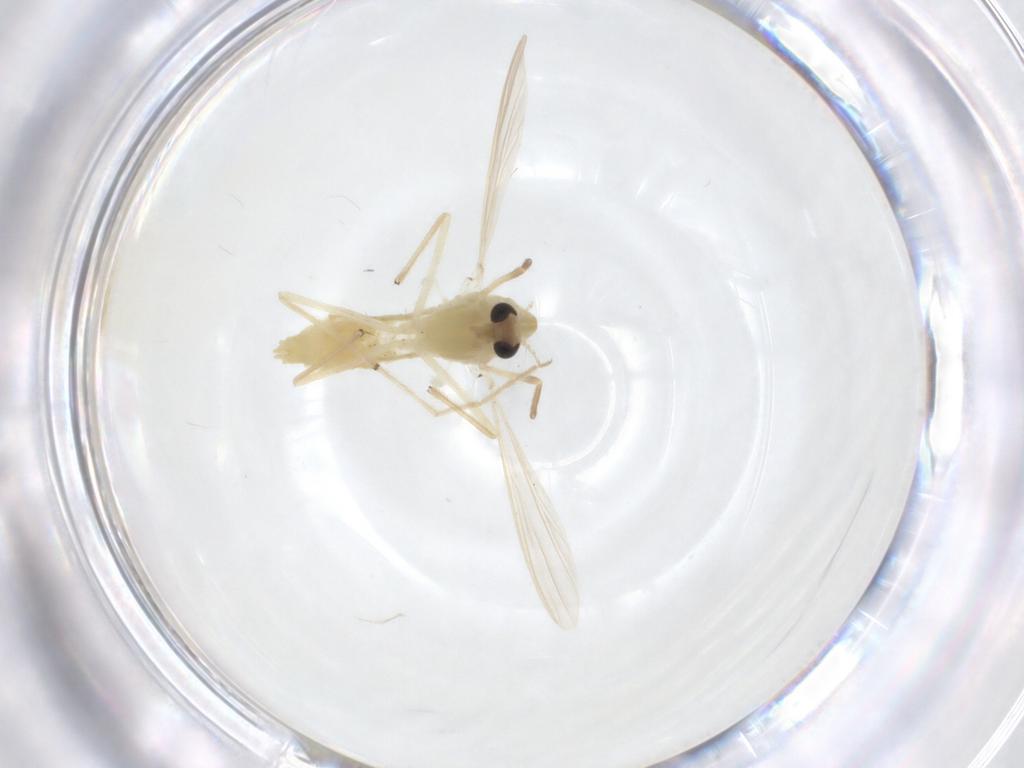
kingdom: Animalia
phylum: Arthropoda
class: Insecta
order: Diptera
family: Chironomidae
